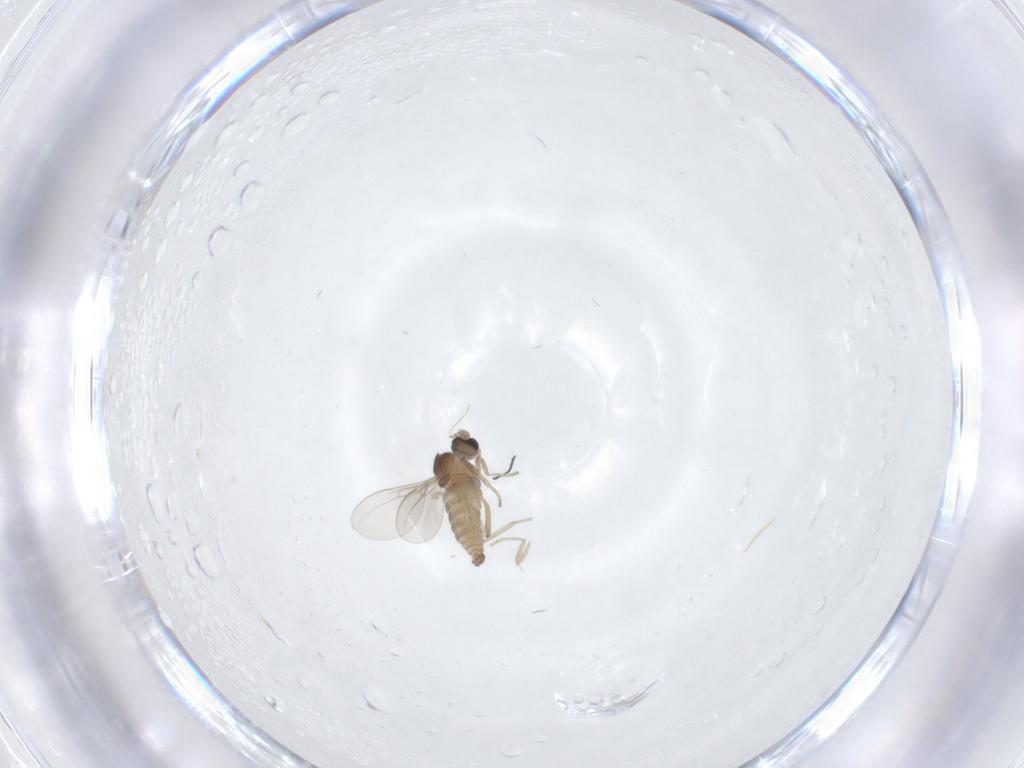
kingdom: Animalia
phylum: Arthropoda
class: Insecta
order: Diptera
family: Cecidomyiidae
